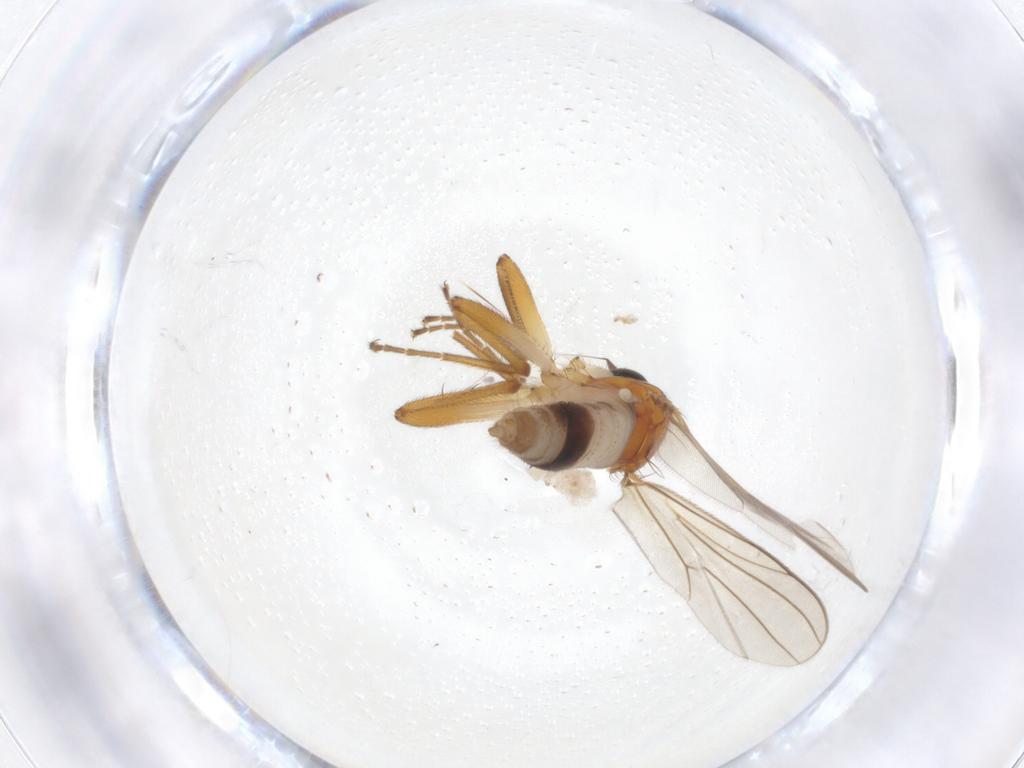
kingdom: Animalia
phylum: Arthropoda
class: Insecta
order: Diptera
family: Hybotidae
